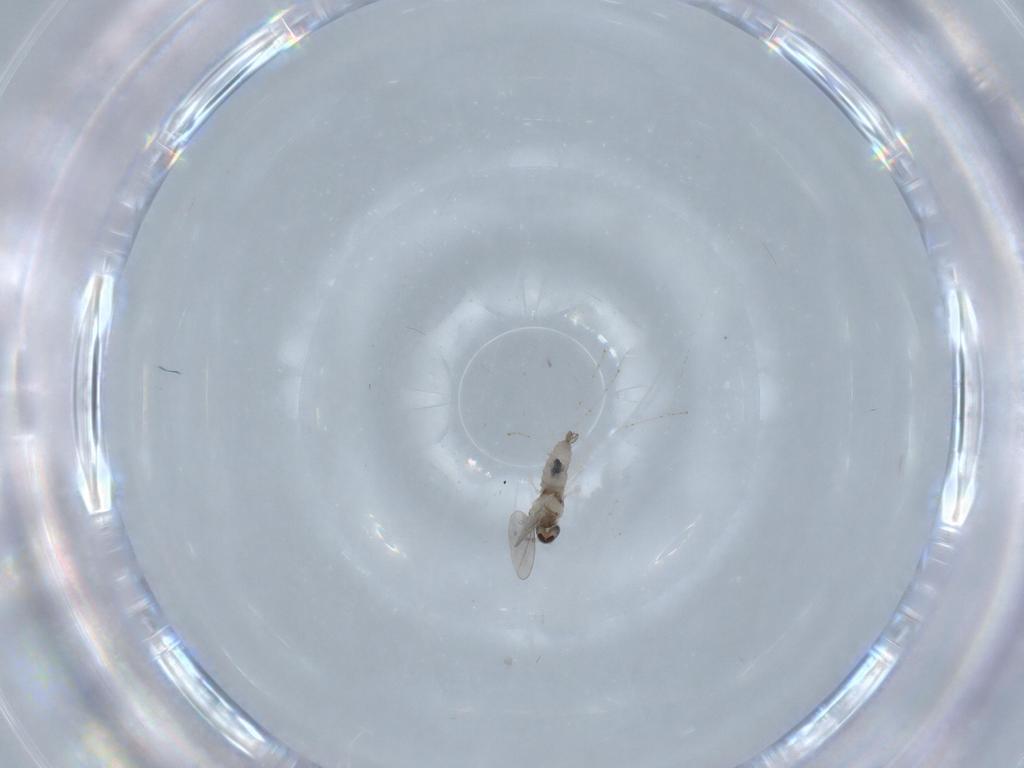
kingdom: Animalia
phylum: Arthropoda
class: Insecta
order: Diptera
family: Cecidomyiidae
